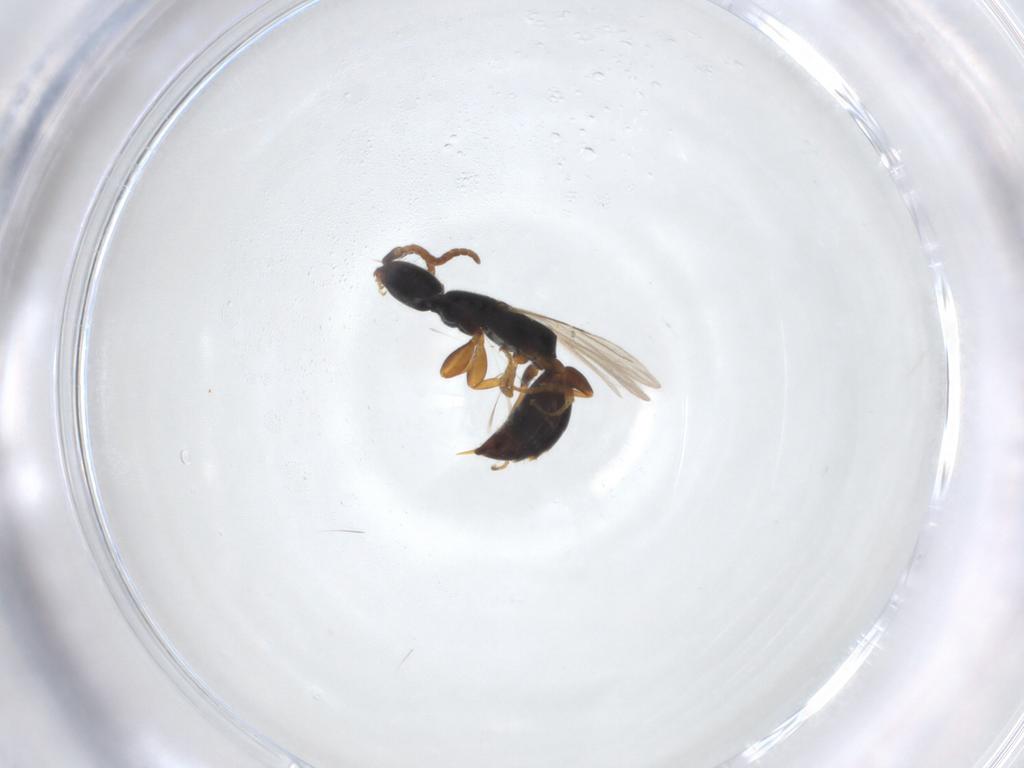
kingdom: Animalia
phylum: Arthropoda
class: Insecta
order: Hymenoptera
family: Bethylidae
